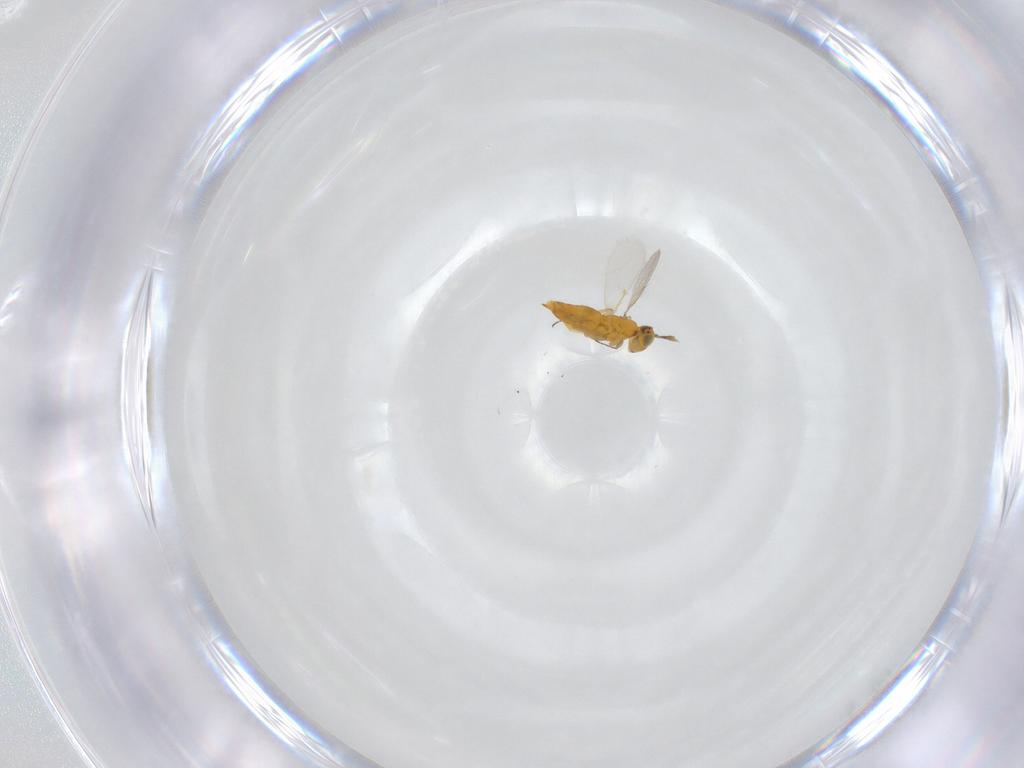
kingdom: Animalia
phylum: Arthropoda
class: Insecta
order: Hymenoptera
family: Aphelinidae
